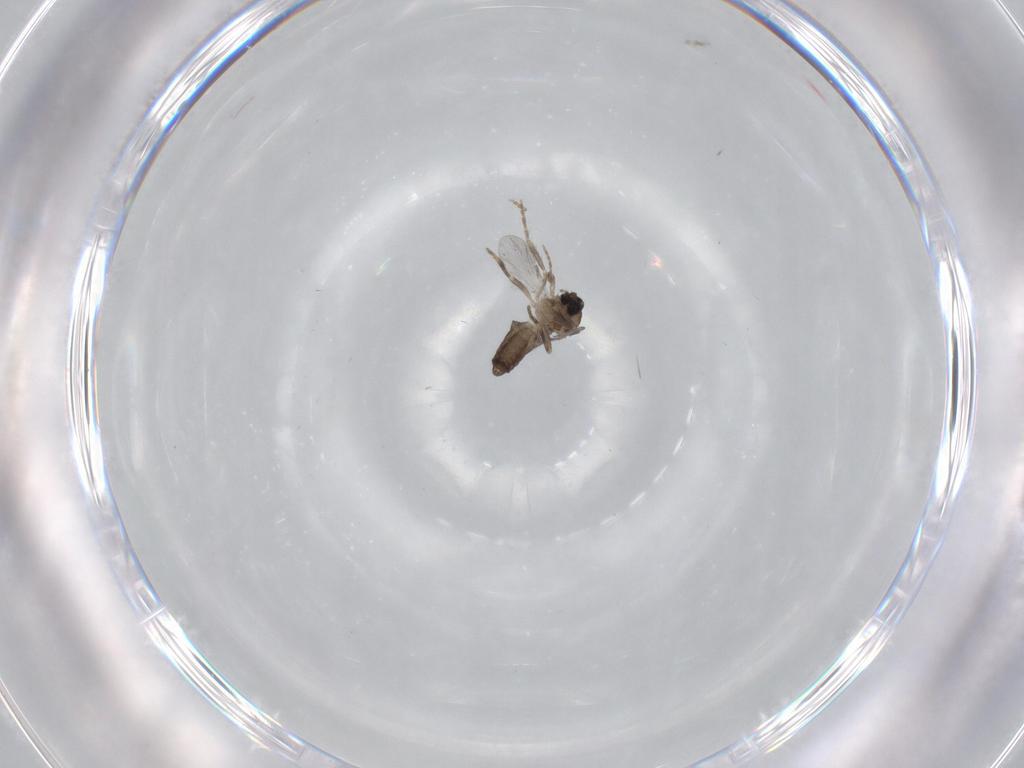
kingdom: Animalia
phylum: Arthropoda
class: Insecta
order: Diptera
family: Ceratopogonidae
